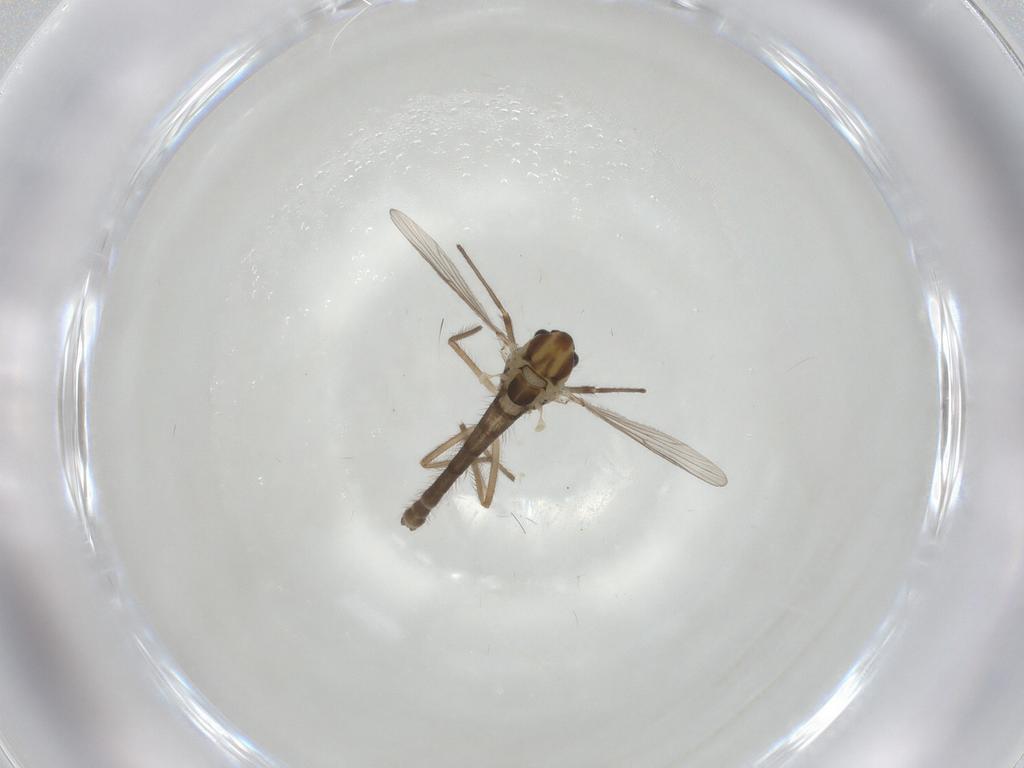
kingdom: Animalia
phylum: Arthropoda
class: Insecta
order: Diptera
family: Chironomidae
